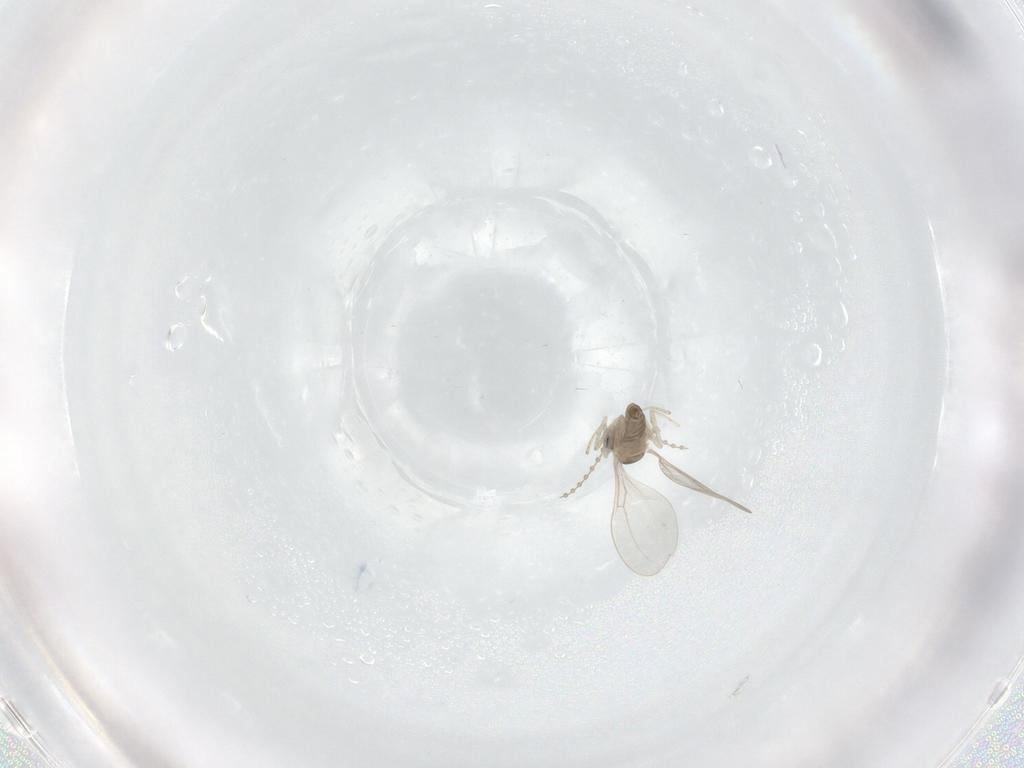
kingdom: Animalia
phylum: Arthropoda
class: Insecta
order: Diptera
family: Cecidomyiidae
